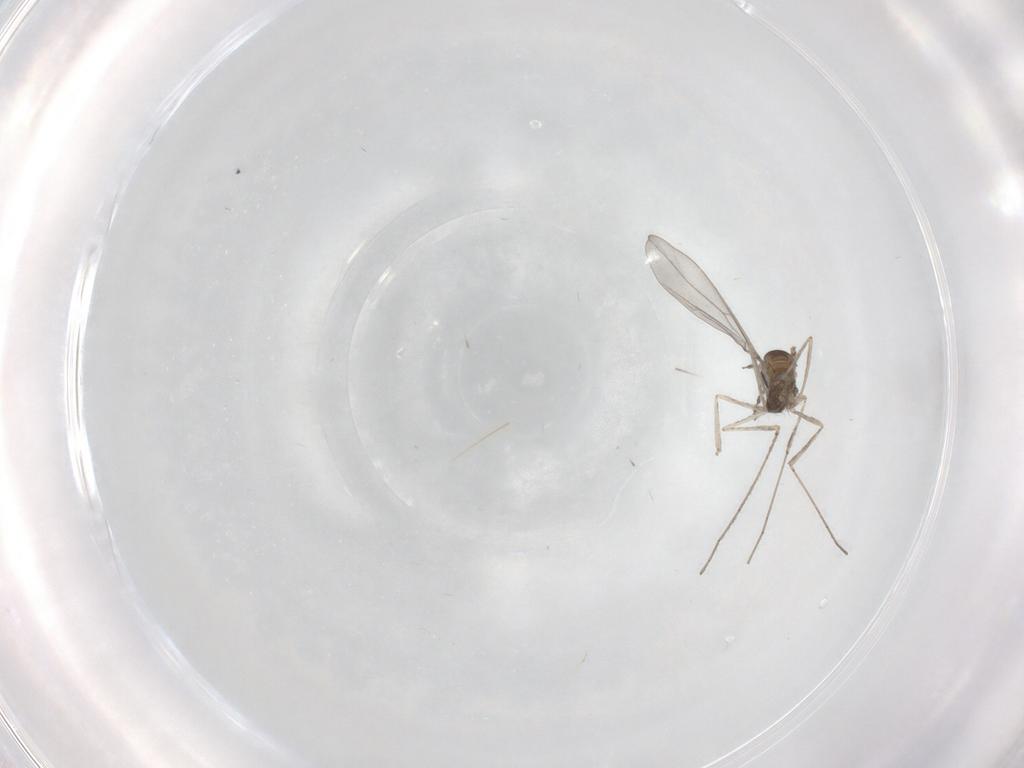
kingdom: Animalia
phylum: Arthropoda
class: Insecta
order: Diptera
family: Cecidomyiidae
